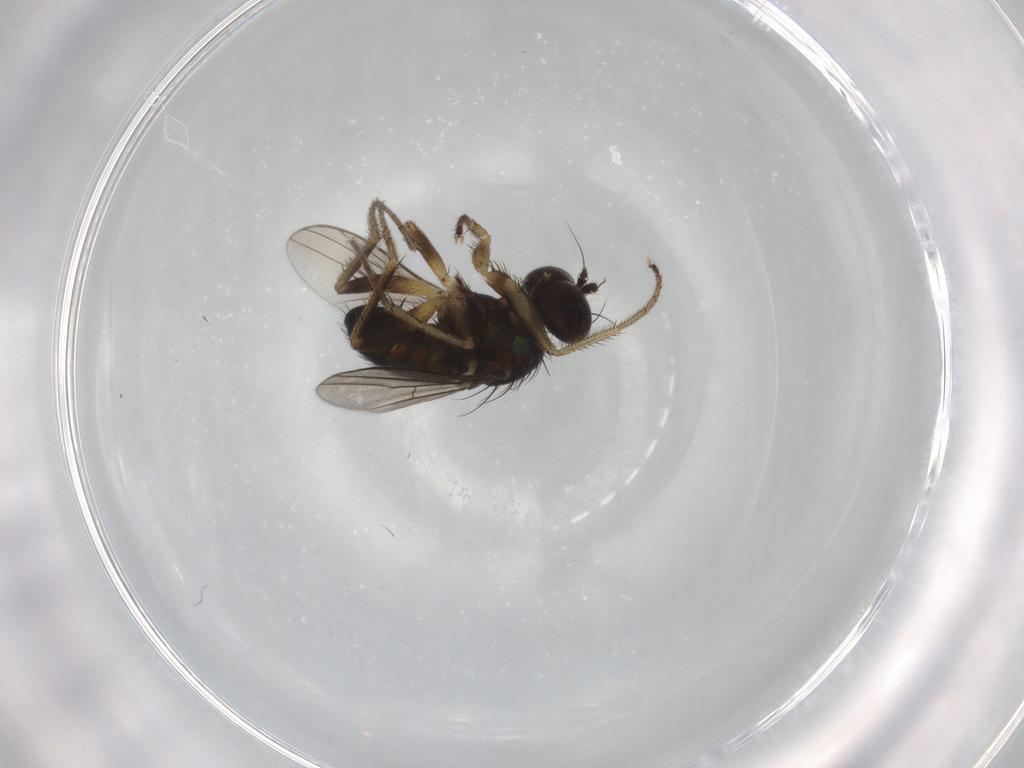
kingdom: Animalia
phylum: Arthropoda
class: Insecta
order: Diptera
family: Dolichopodidae
